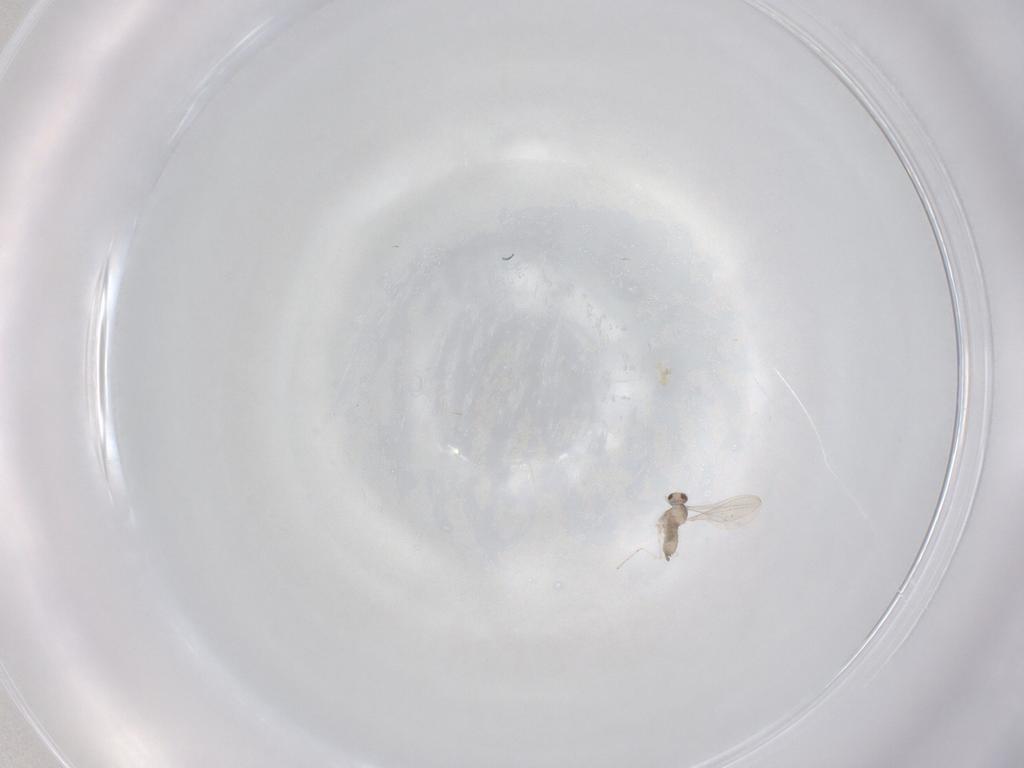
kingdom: Animalia
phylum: Arthropoda
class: Insecta
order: Diptera
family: Cecidomyiidae
